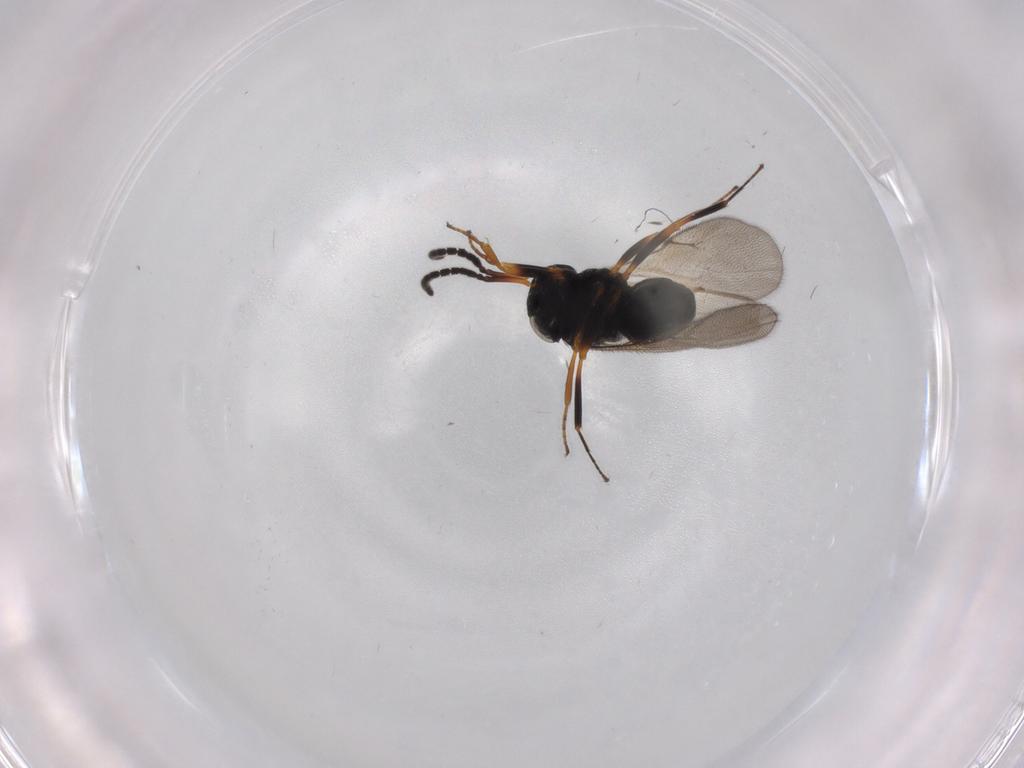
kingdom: Animalia
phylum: Arthropoda
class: Insecta
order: Hymenoptera
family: Scelionidae
